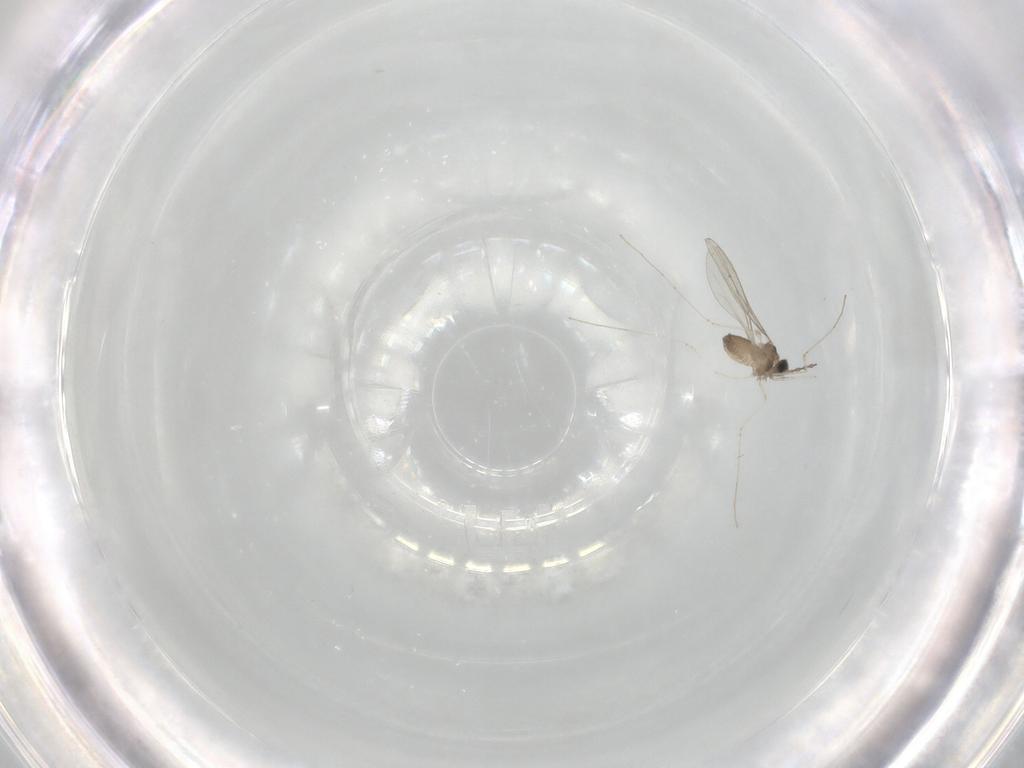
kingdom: Animalia
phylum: Arthropoda
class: Insecta
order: Diptera
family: Cecidomyiidae
